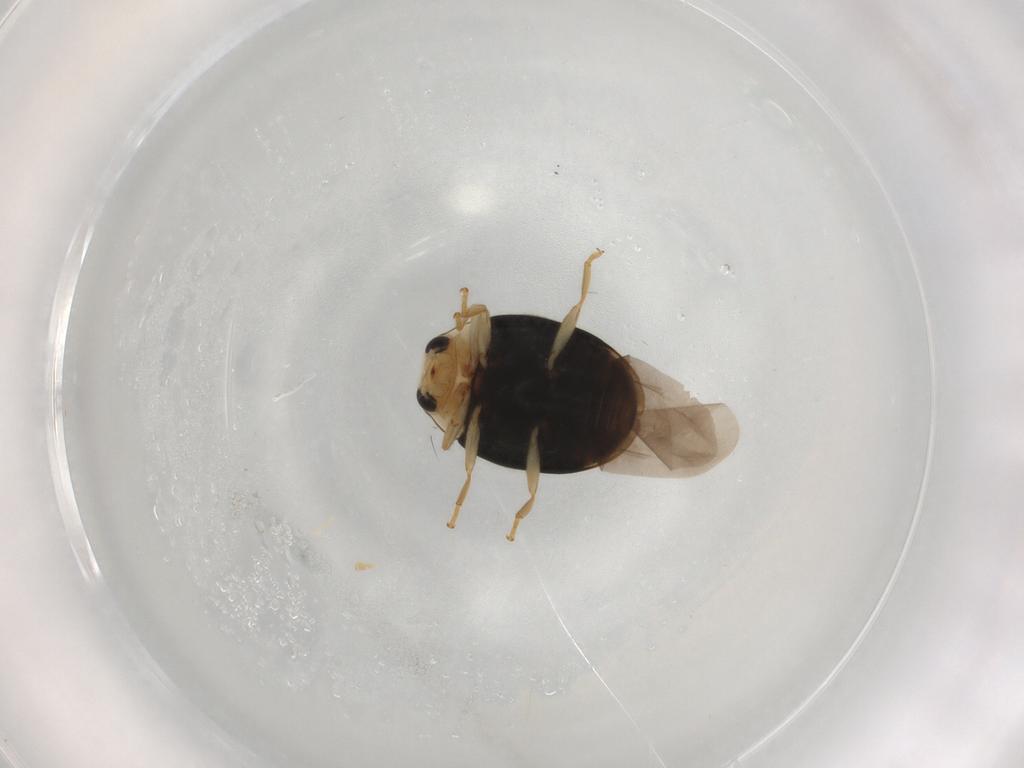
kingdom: Animalia
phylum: Arthropoda
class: Insecta
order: Coleoptera
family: Coccinellidae
